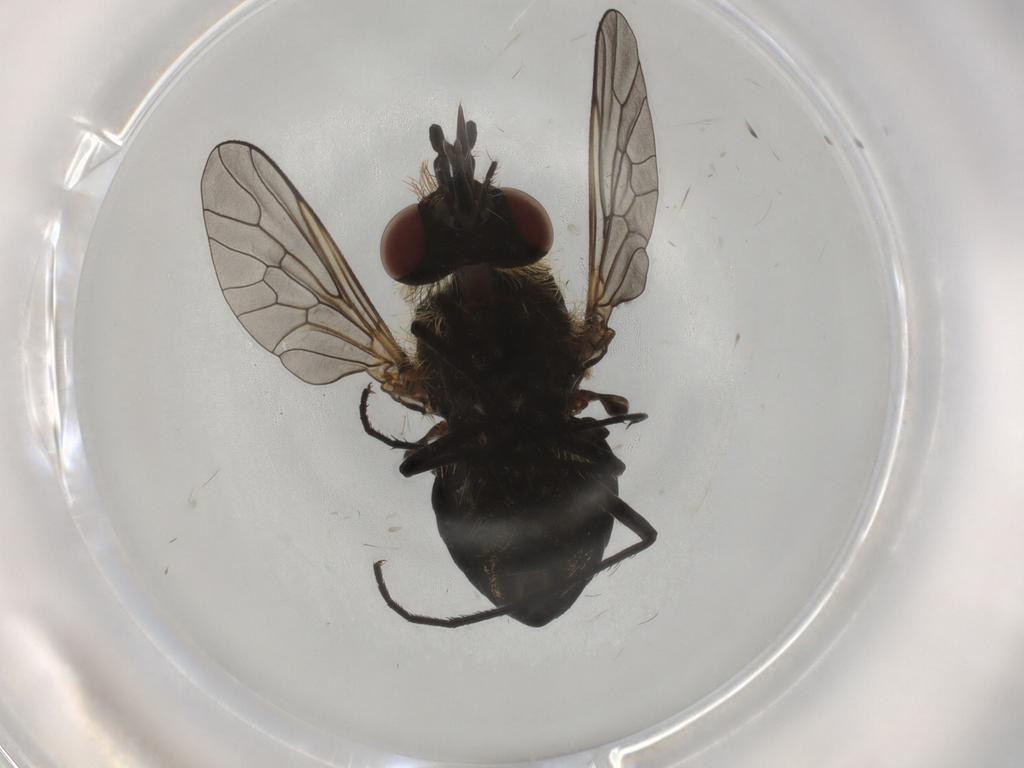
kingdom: Animalia
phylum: Arthropoda
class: Insecta
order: Diptera
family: Bombyliidae
